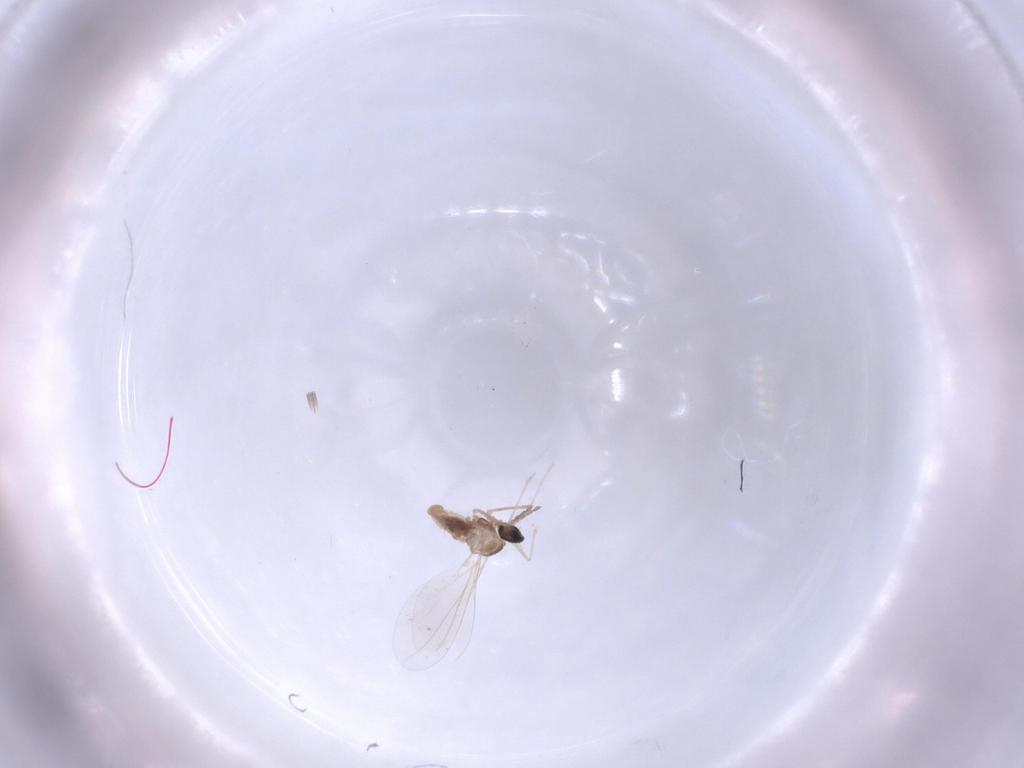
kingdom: Animalia
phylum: Arthropoda
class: Insecta
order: Diptera
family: Cecidomyiidae
